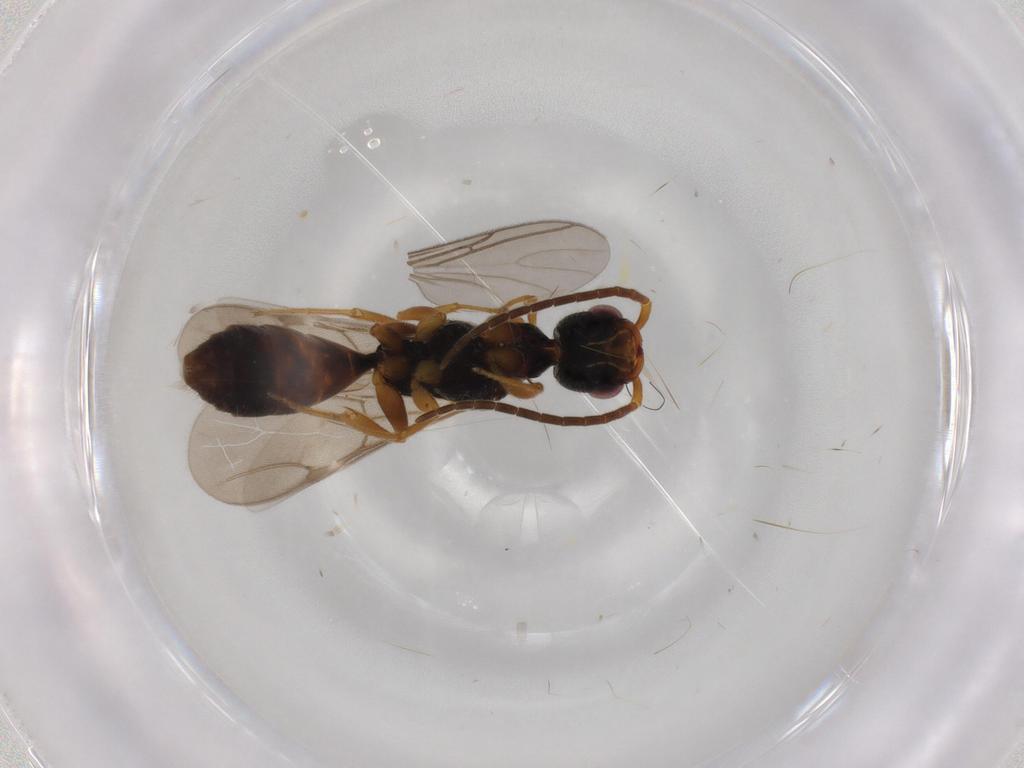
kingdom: Animalia
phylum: Arthropoda
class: Insecta
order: Hymenoptera
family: Bethylidae
